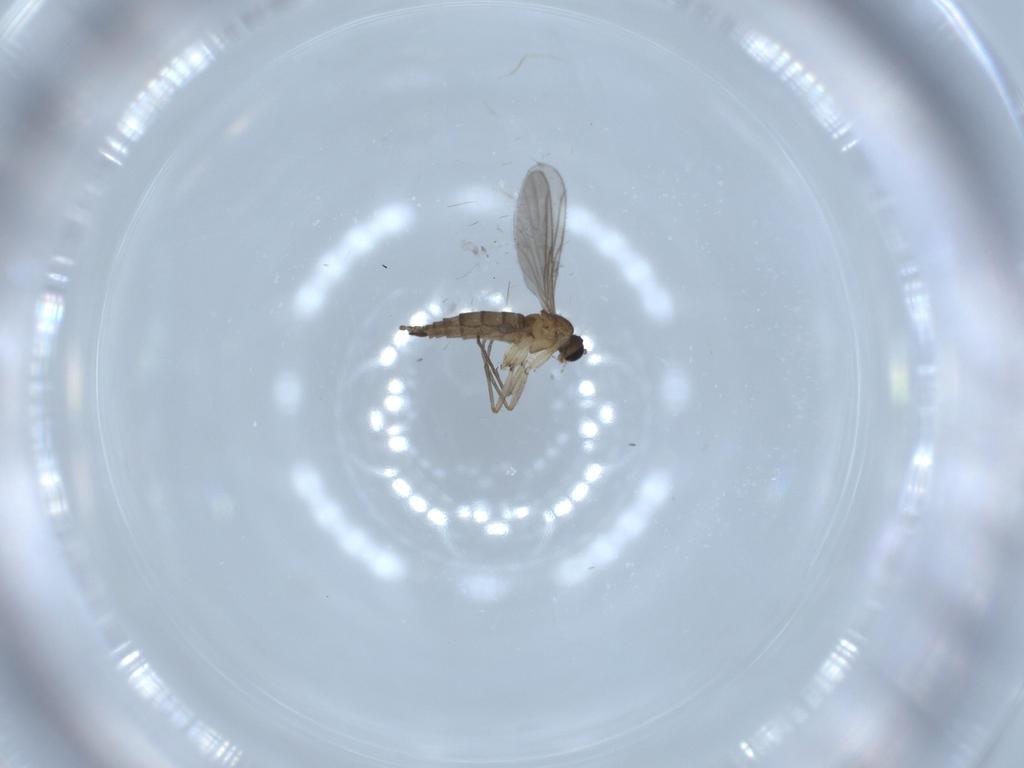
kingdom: Animalia
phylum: Arthropoda
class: Insecta
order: Diptera
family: Sciaridae
